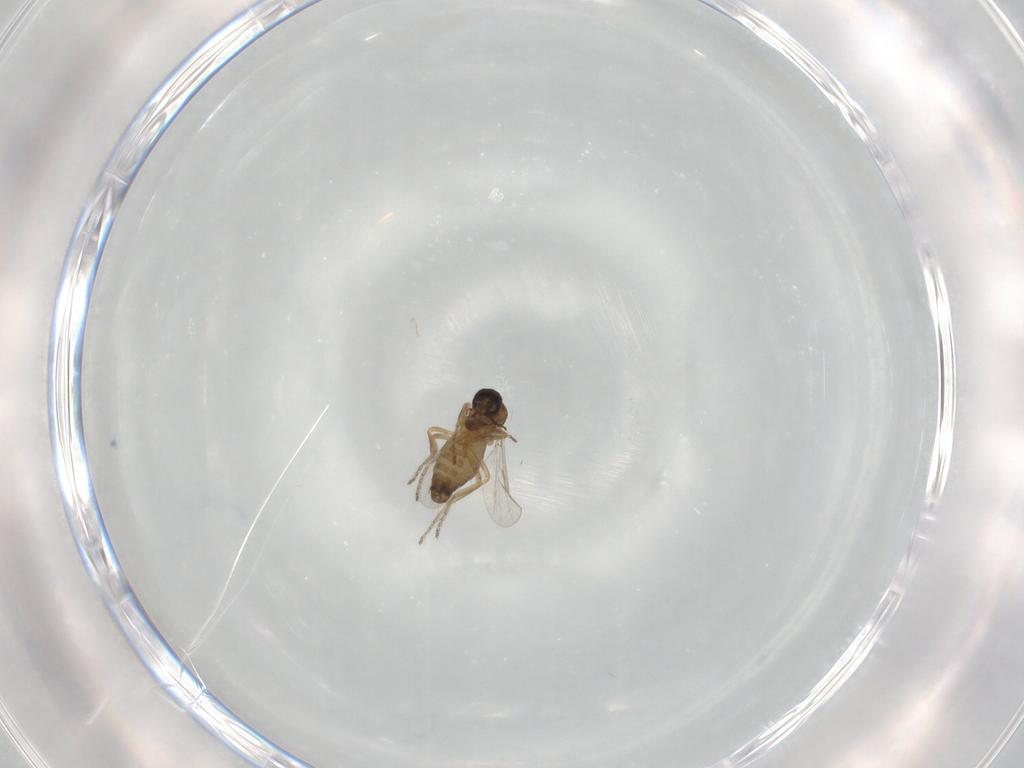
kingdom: Animalia
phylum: Arthropoda
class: Insecta
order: Diptera
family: Ceratopogonidae
